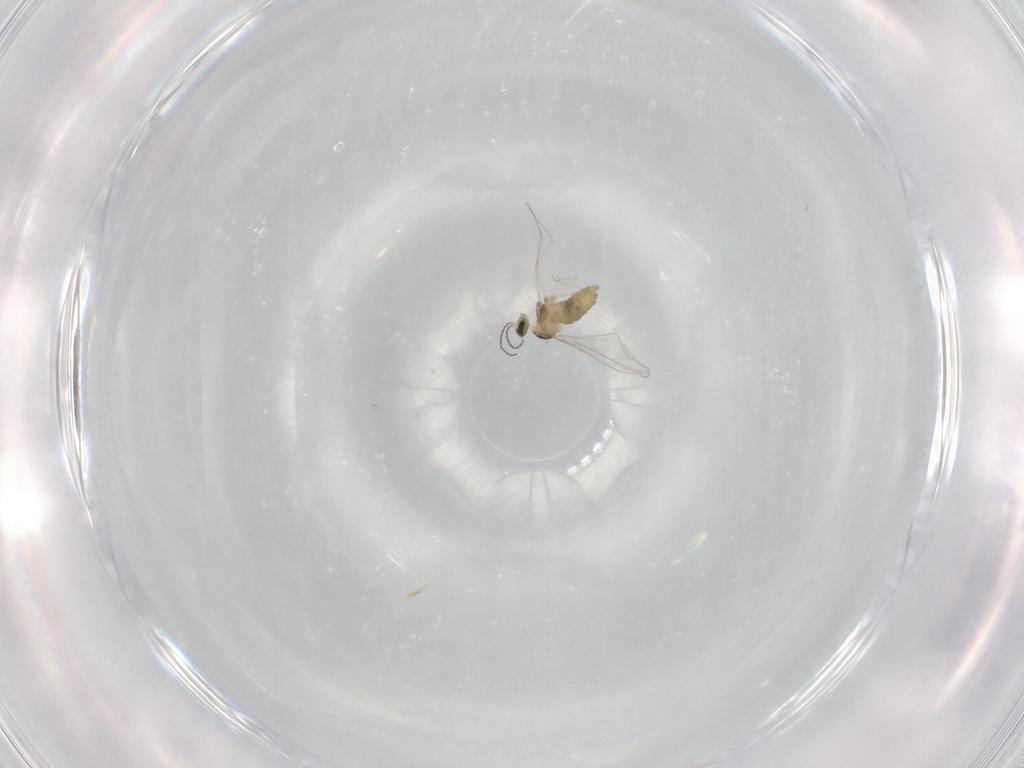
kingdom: Animalia
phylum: Arthropoda
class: Insecta
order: Diptera
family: Cecidomyiidae
